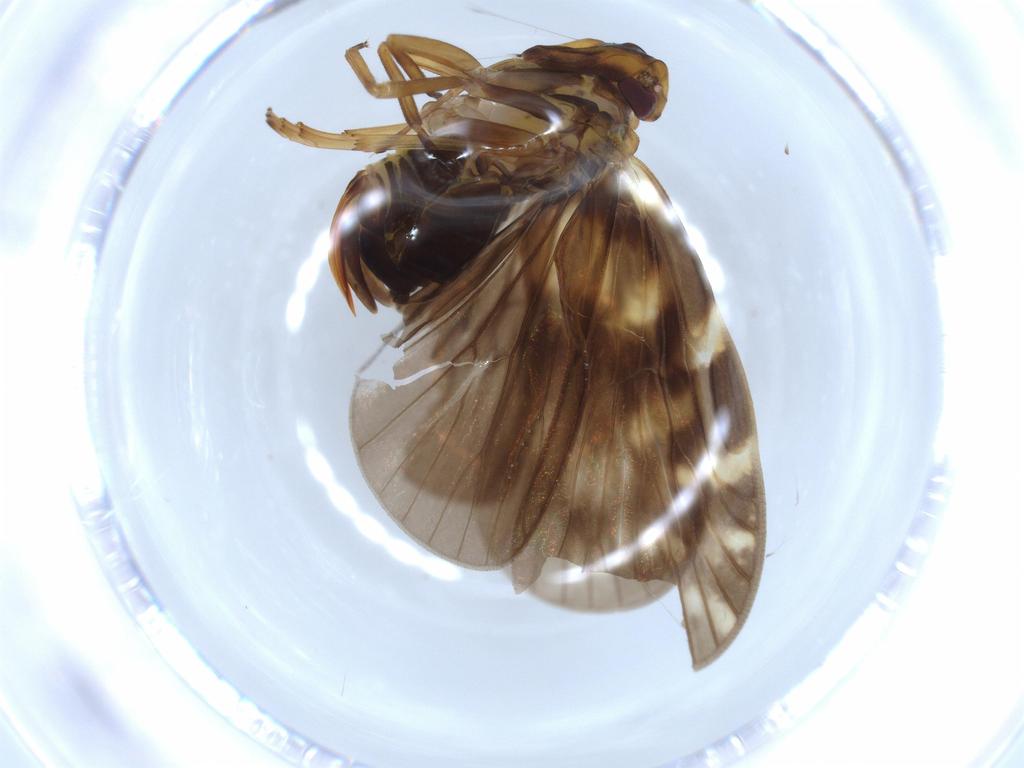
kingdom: Animalia
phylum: Arthropoda
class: Insecta
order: Hemiptera
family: Cixiidae
